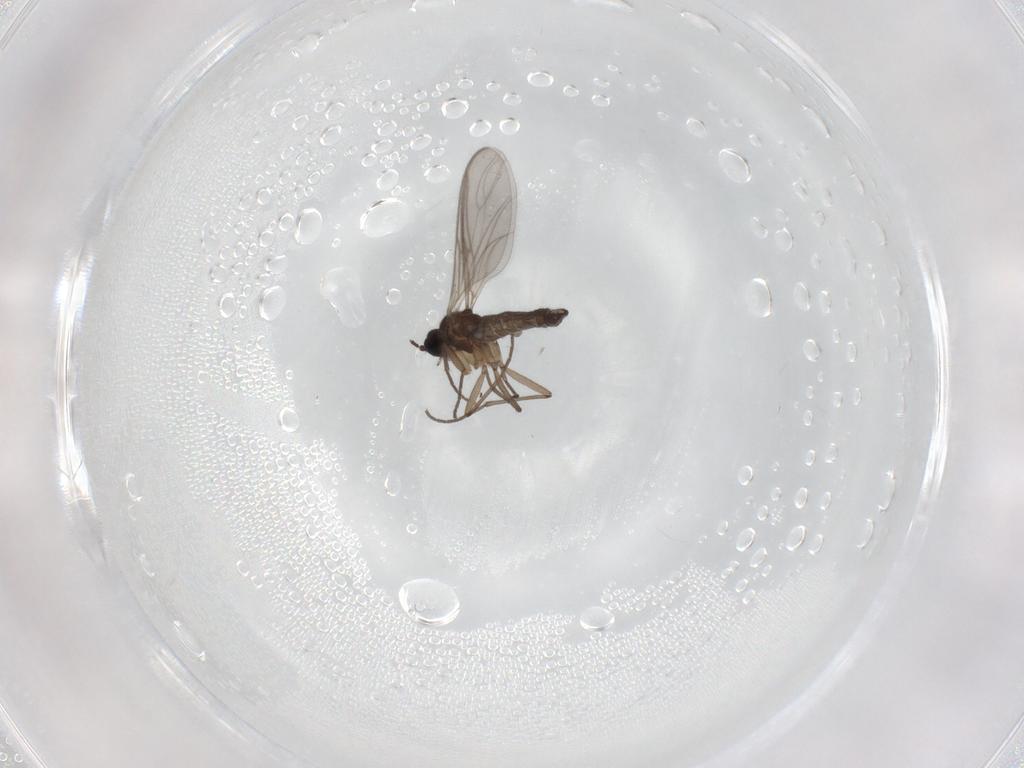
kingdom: Animalia
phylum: Arthropoda
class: Insecta
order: Diptera
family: Sciaridae
